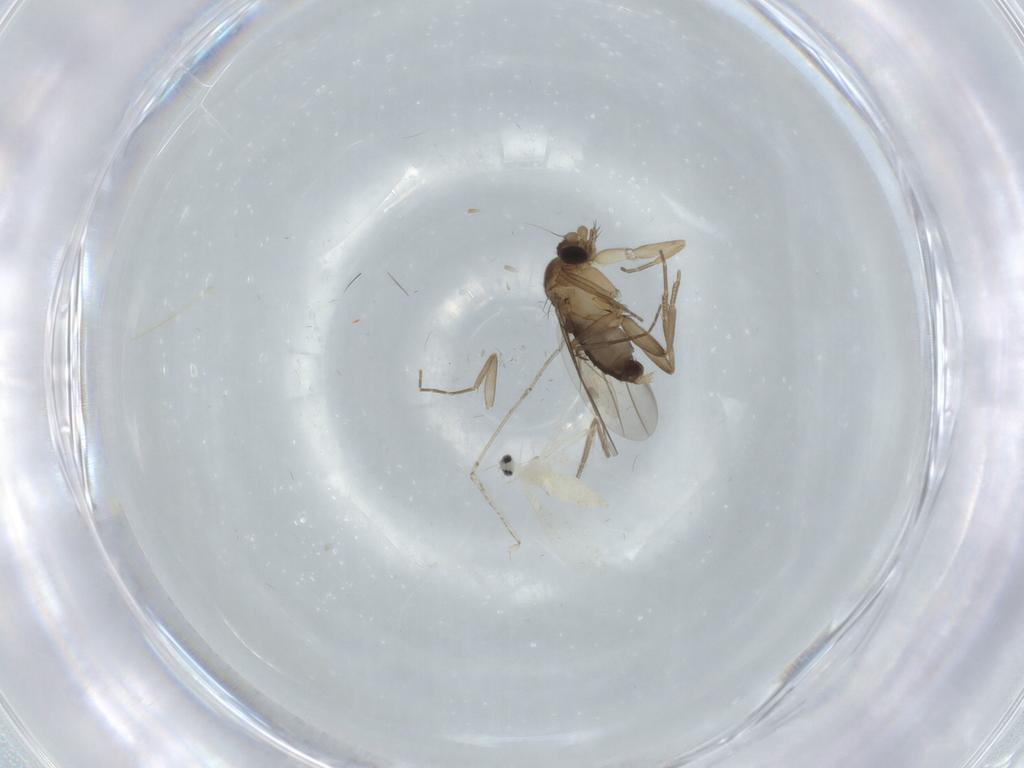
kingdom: Animalia
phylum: Arthropoda
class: Insecta
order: Diptera
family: Phoridae
